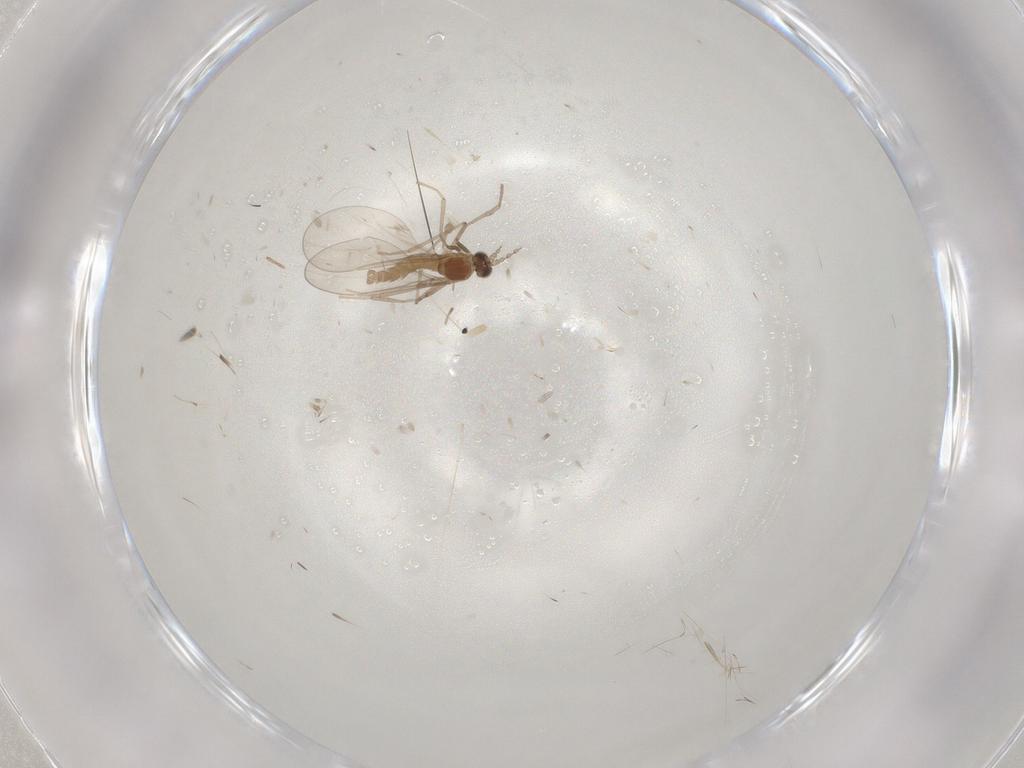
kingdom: Animalia
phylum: Arthropoda
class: Insecta
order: Diptera
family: Cecidomyiidae
